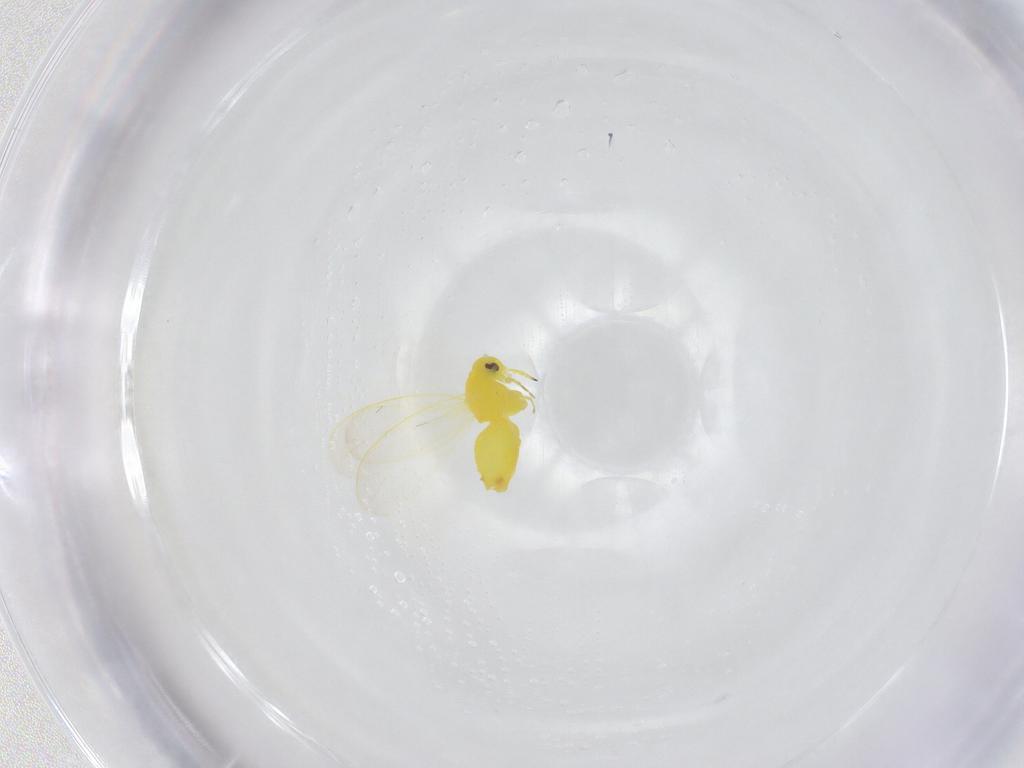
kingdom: Animalia
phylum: Arthropoda
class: Insecta
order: Hemiptera
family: Aleyrodidae
